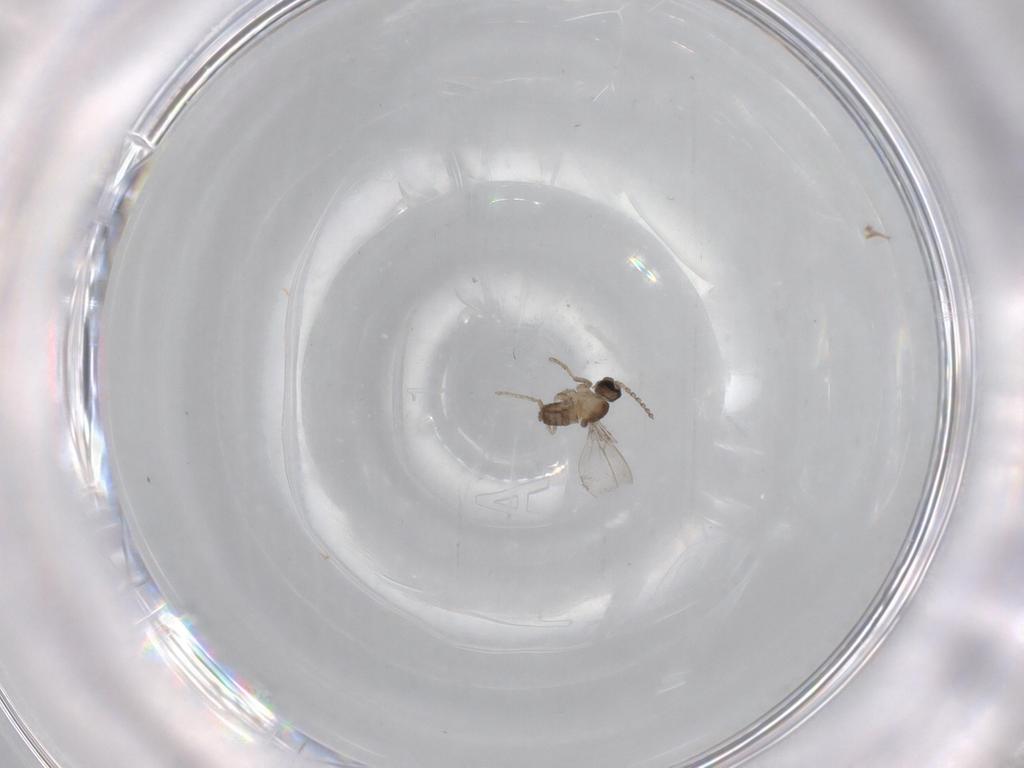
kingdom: Animalia
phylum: Arthropoda
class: Insecta
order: Diptera
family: Cecidomyiidae
